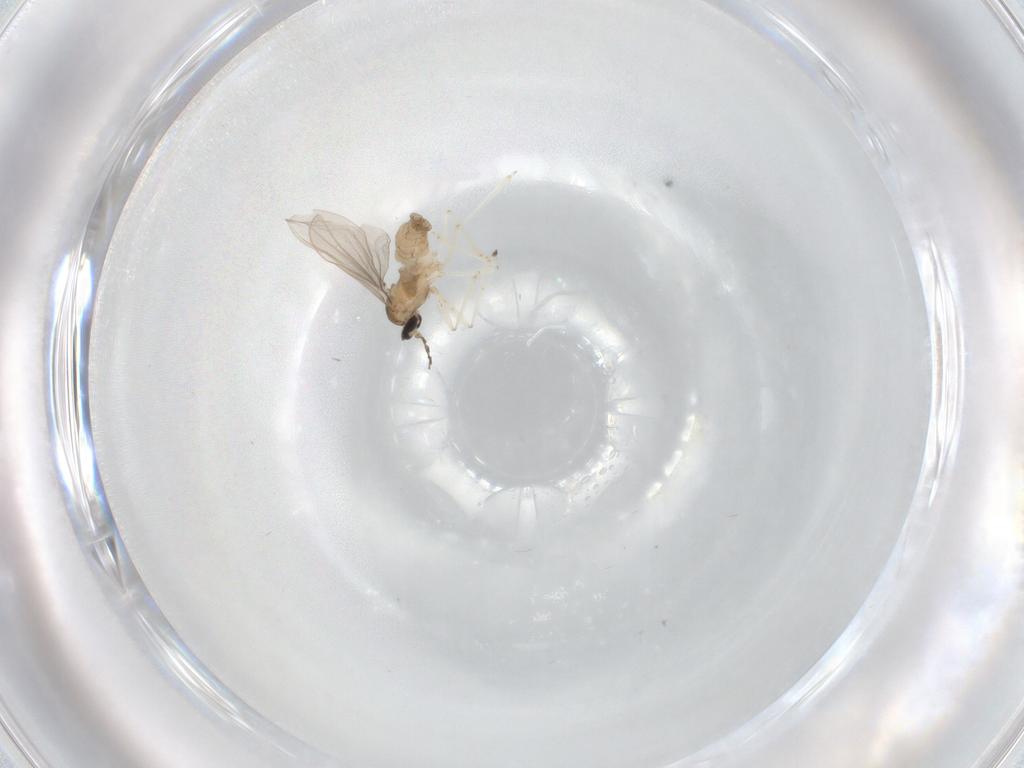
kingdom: Animalia
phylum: Arthropoda
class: Insecta
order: Diptera
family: Cecidomyiidae
